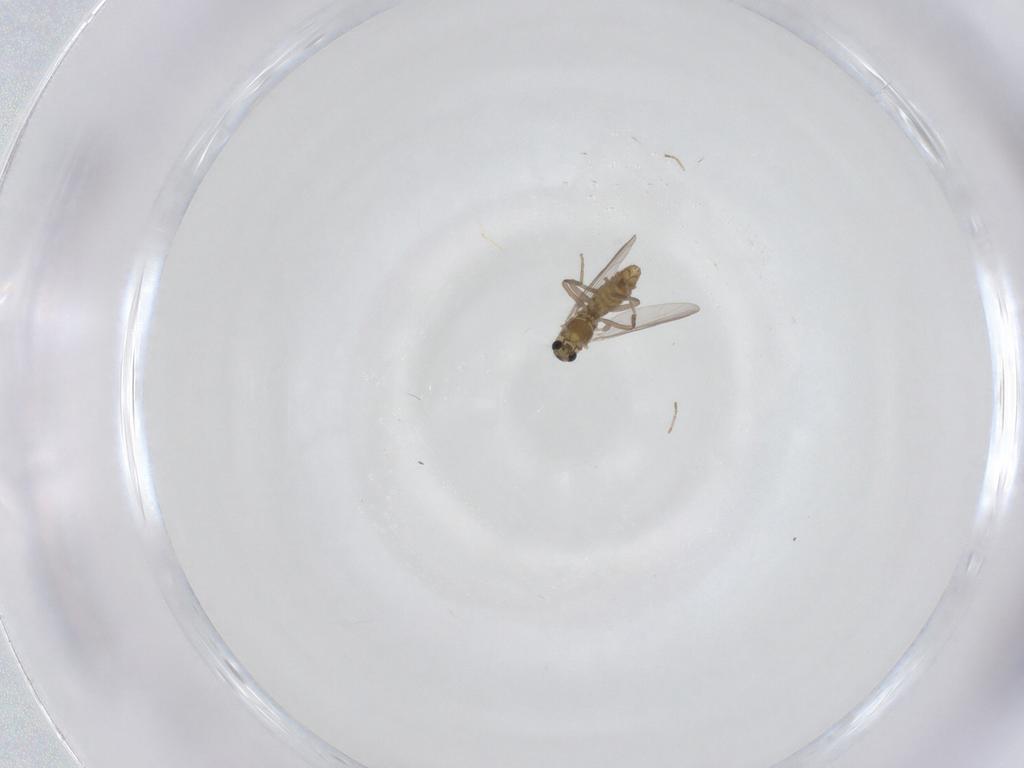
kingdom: Animalia
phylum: Arthropoda
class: Insecta
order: Diptera
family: Chironomidae
